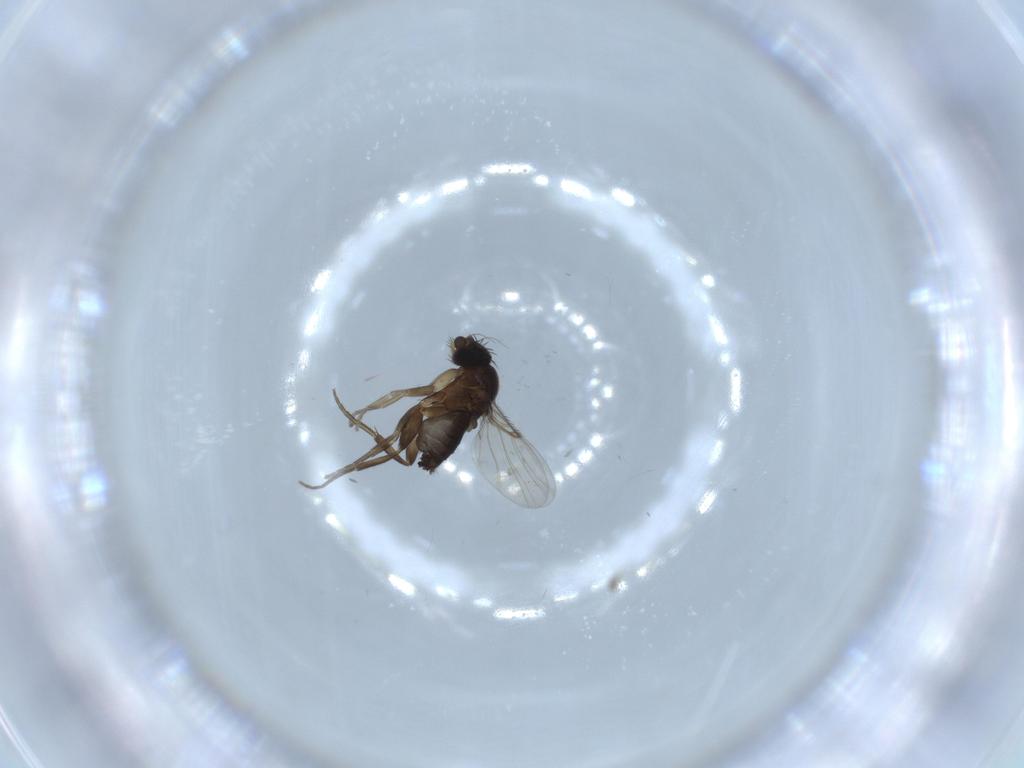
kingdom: Animalia
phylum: Arthropoda
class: Insecta
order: Diptera
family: Phoridae
